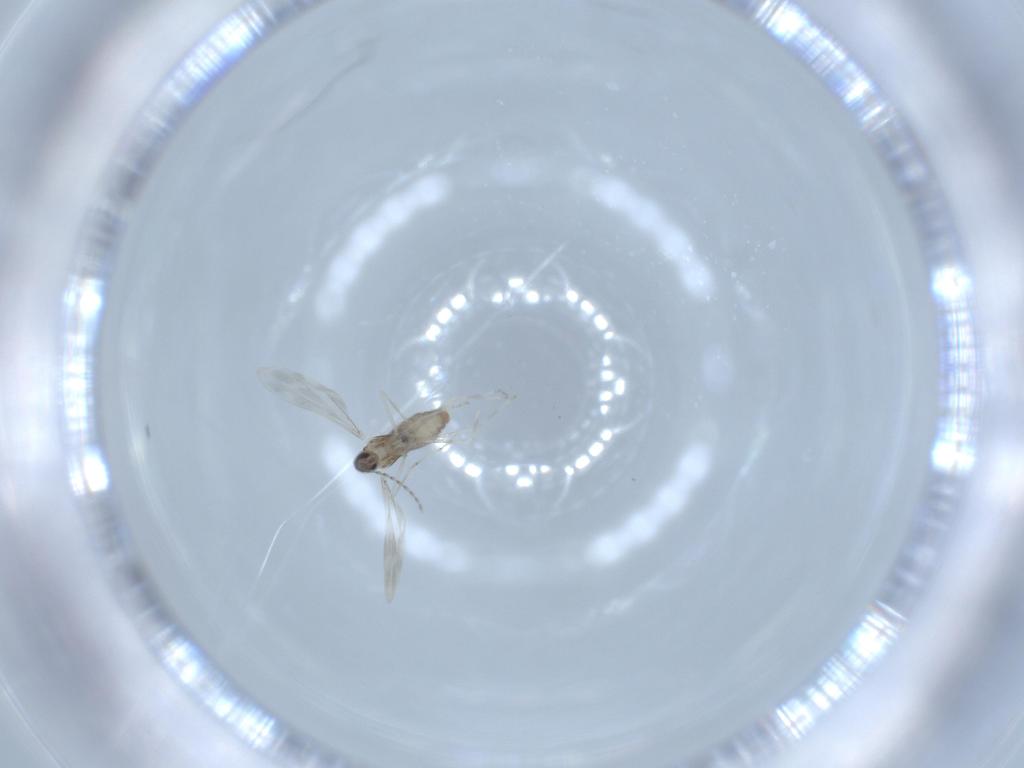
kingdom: Animalia
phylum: Arthropoda
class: Insecta
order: Diptera
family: Cecidomyiidae
